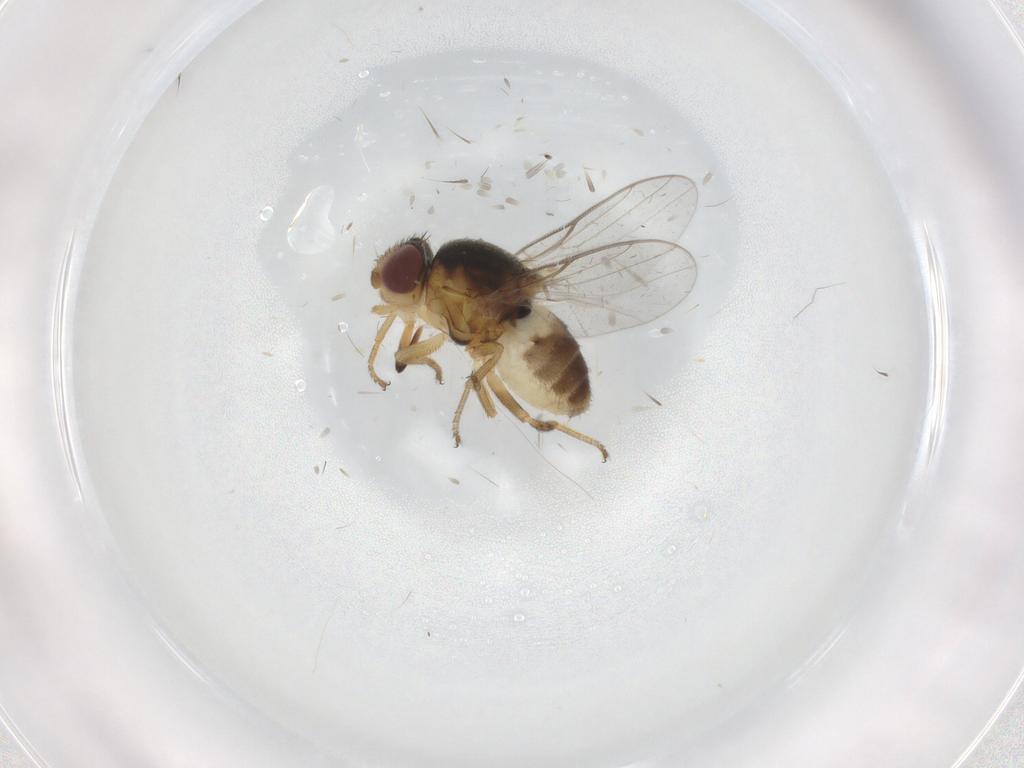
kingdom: Animalia
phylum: Arthropoda
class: Insecta
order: Diptera
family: Chloropidae
